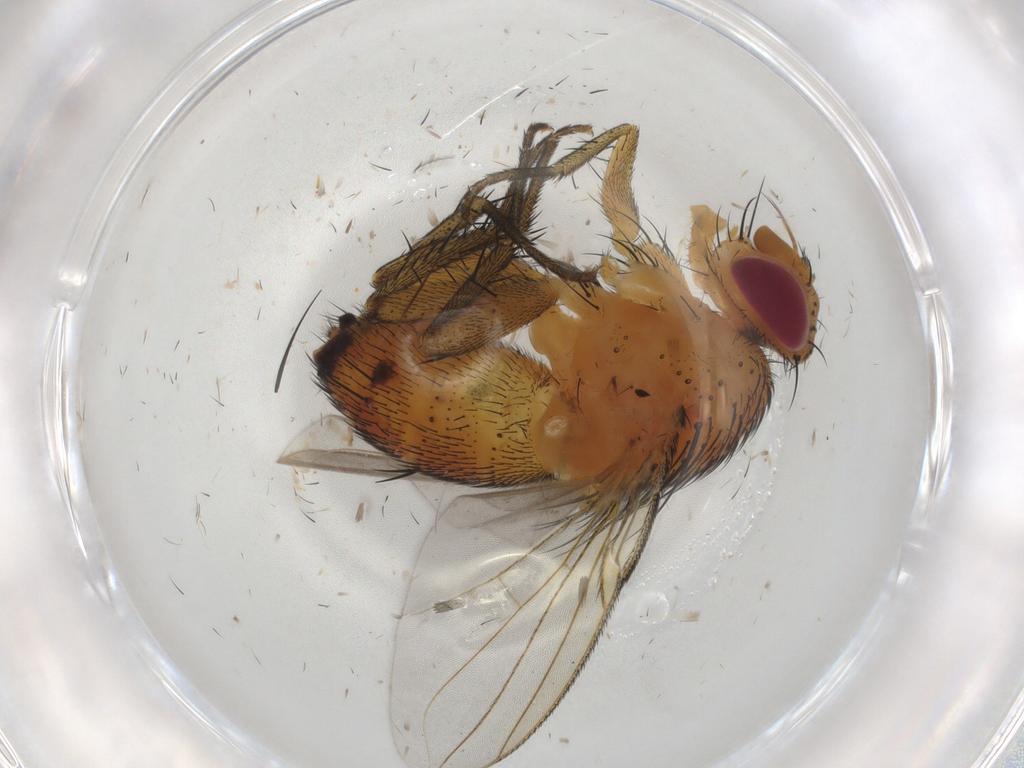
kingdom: Animalia
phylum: Arthropoda
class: Insecta
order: Diptera
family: Tachinidae
